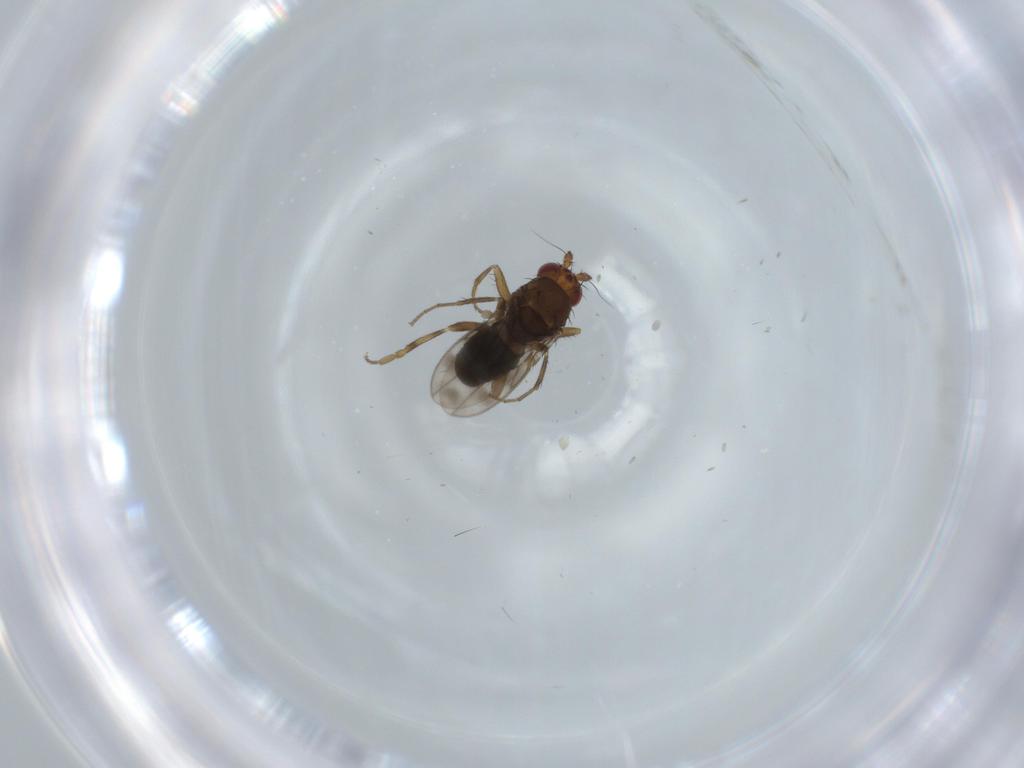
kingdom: Animalia
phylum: Arthropoda
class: Insecta
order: Diptera
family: Sphaeroceridae
